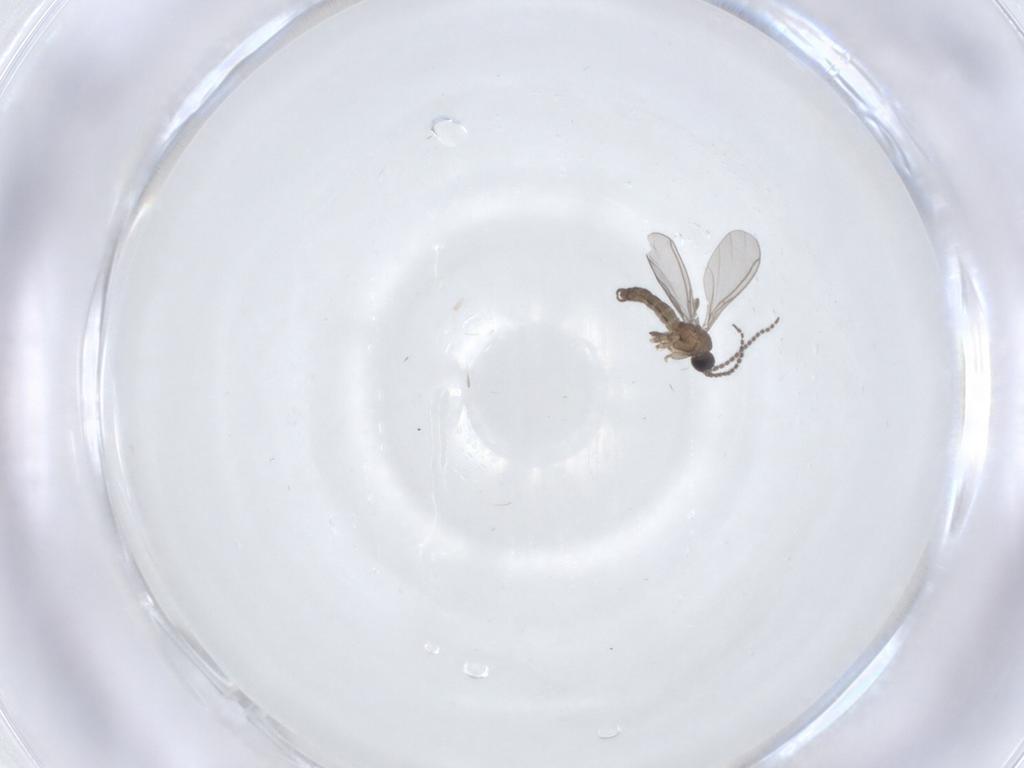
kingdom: Animalia
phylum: Arthropoda
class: Insecta
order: Diptera
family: Sciaridae
